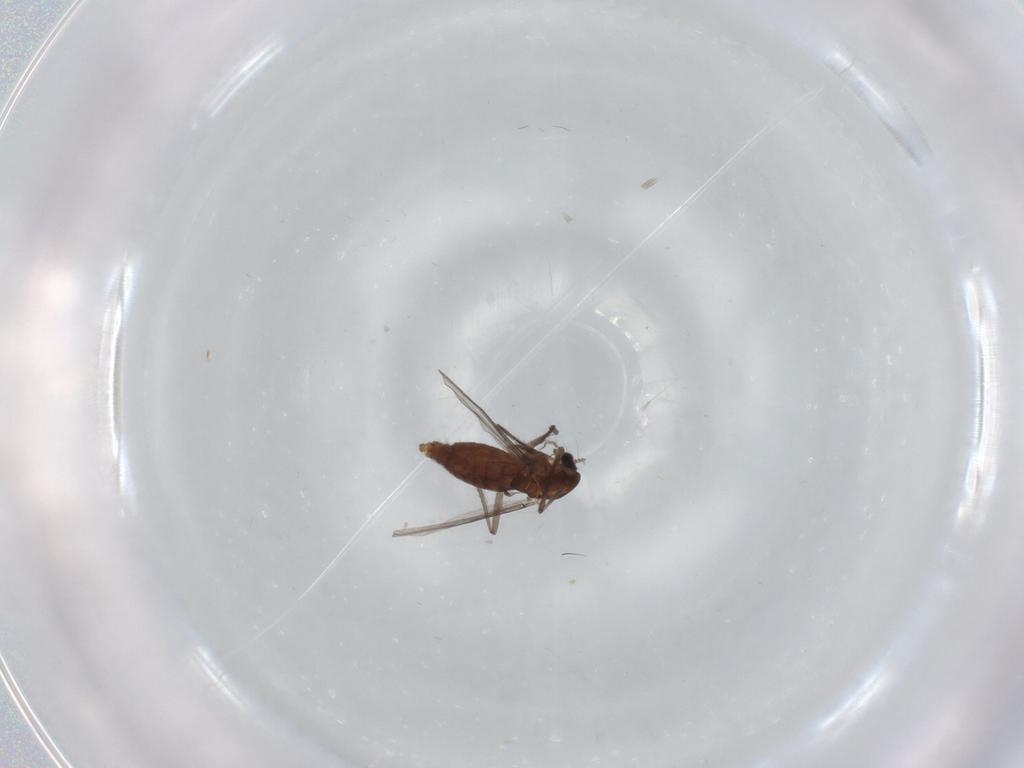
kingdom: Animalia
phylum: Arthropoda
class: Insecta
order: Diptera
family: Chironomidae
